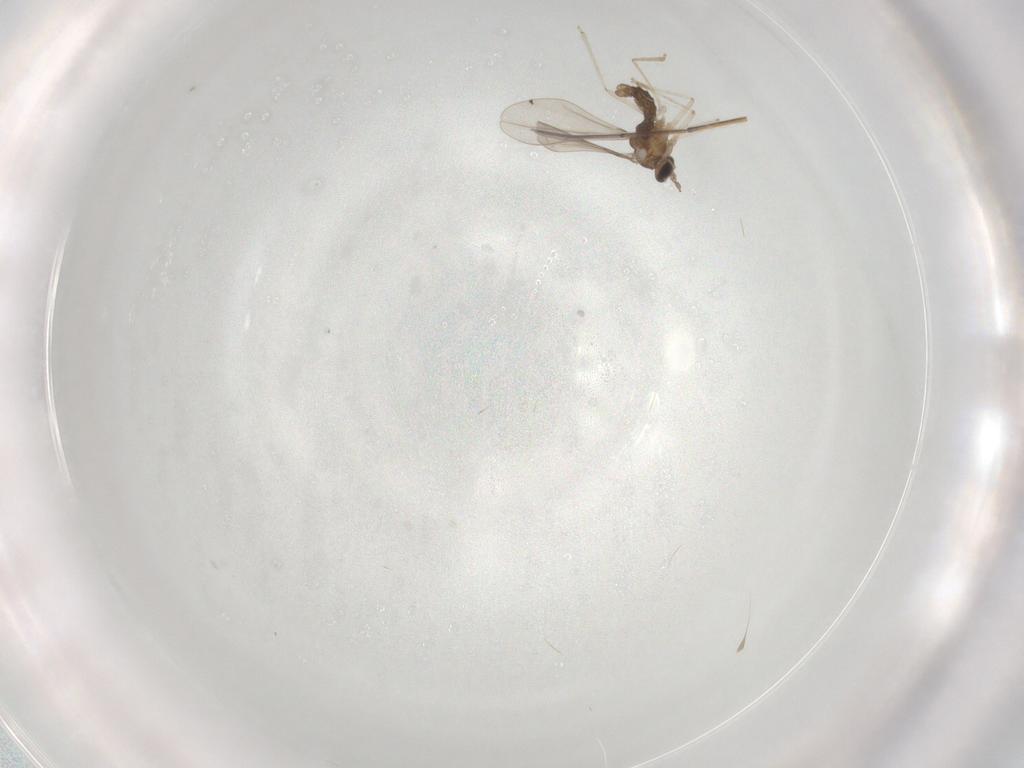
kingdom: Animalia
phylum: Arthropoda
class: Insecta
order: Diptera
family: Cecidomyiidae
